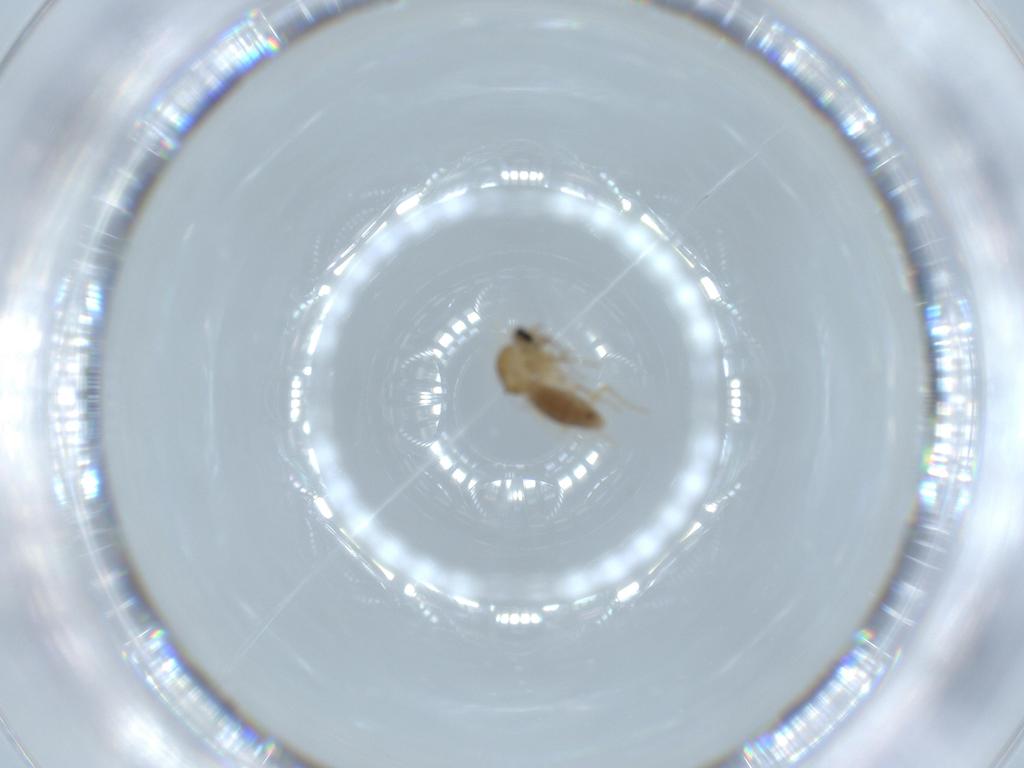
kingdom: Animalia
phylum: Arthropoda
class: Insecta
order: Diptera
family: Ceratopogonidae
